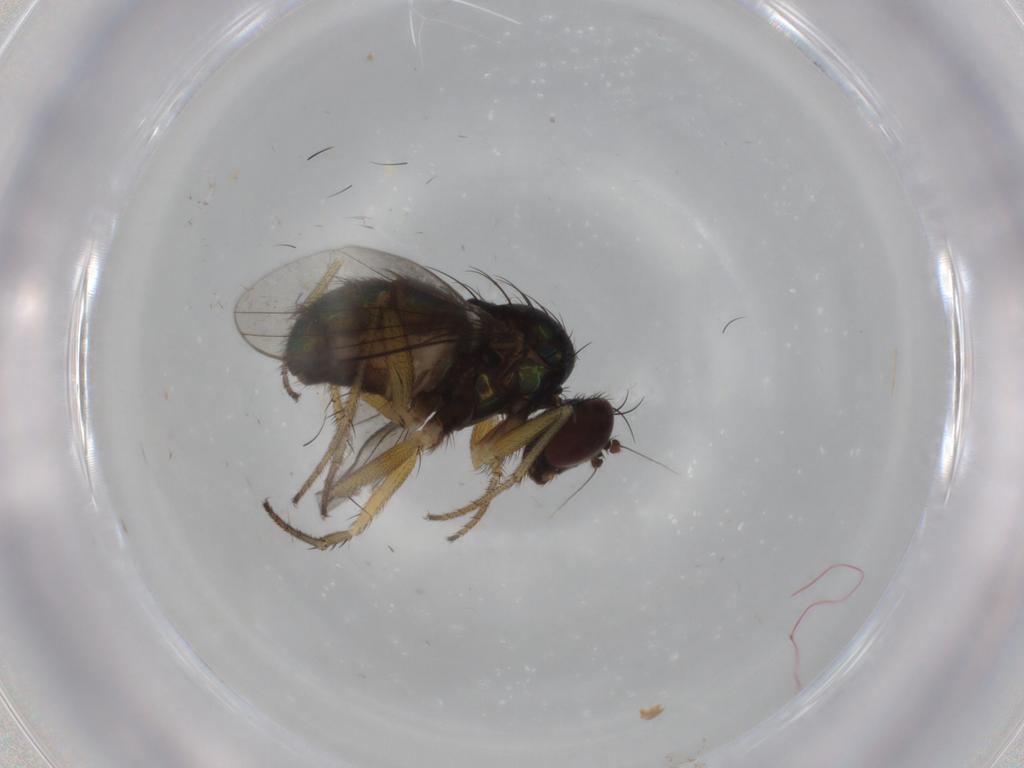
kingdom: Animalia
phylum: Arthropoda
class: Insecta
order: Diptera
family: Dolichopodidae
